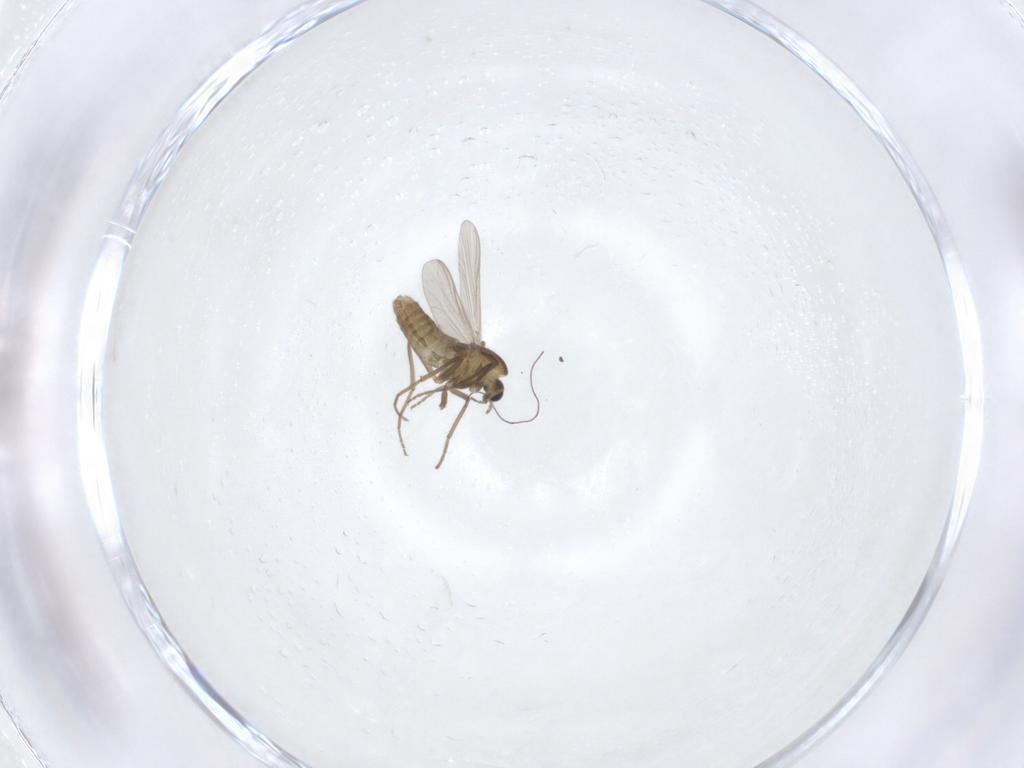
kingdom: Animalia
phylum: Arthropoda
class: Insecta
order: Diptera
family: Chironomidae
